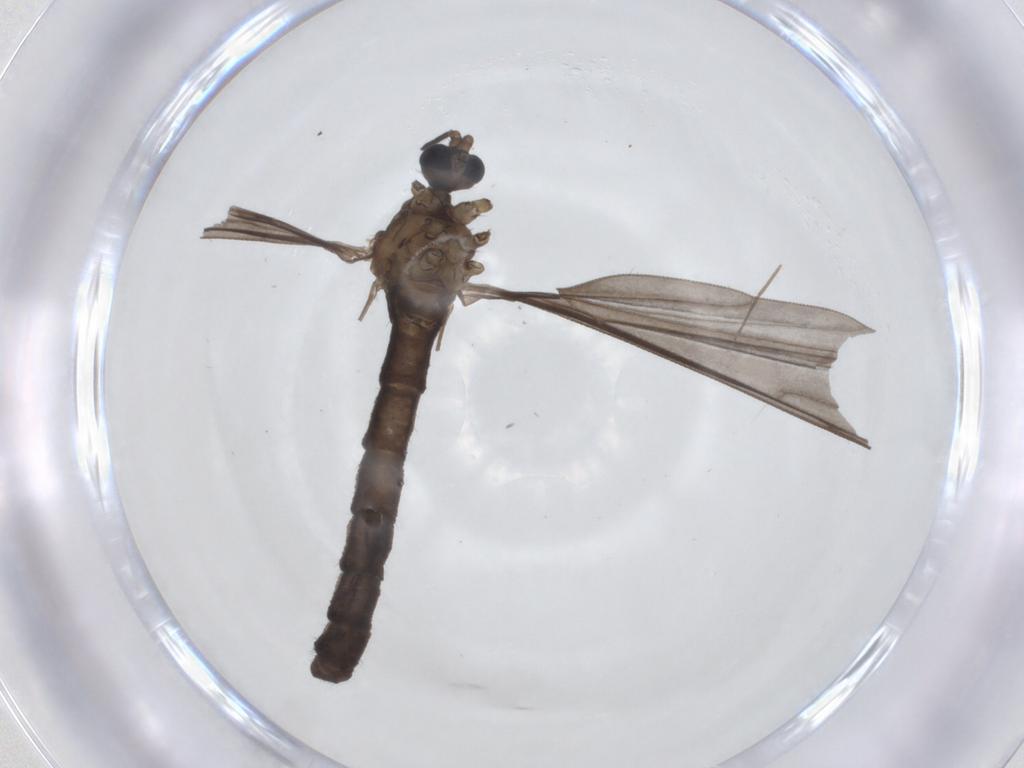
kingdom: Animalia
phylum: Arthropoda
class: Insecta
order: Diptera
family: Limoniidae
